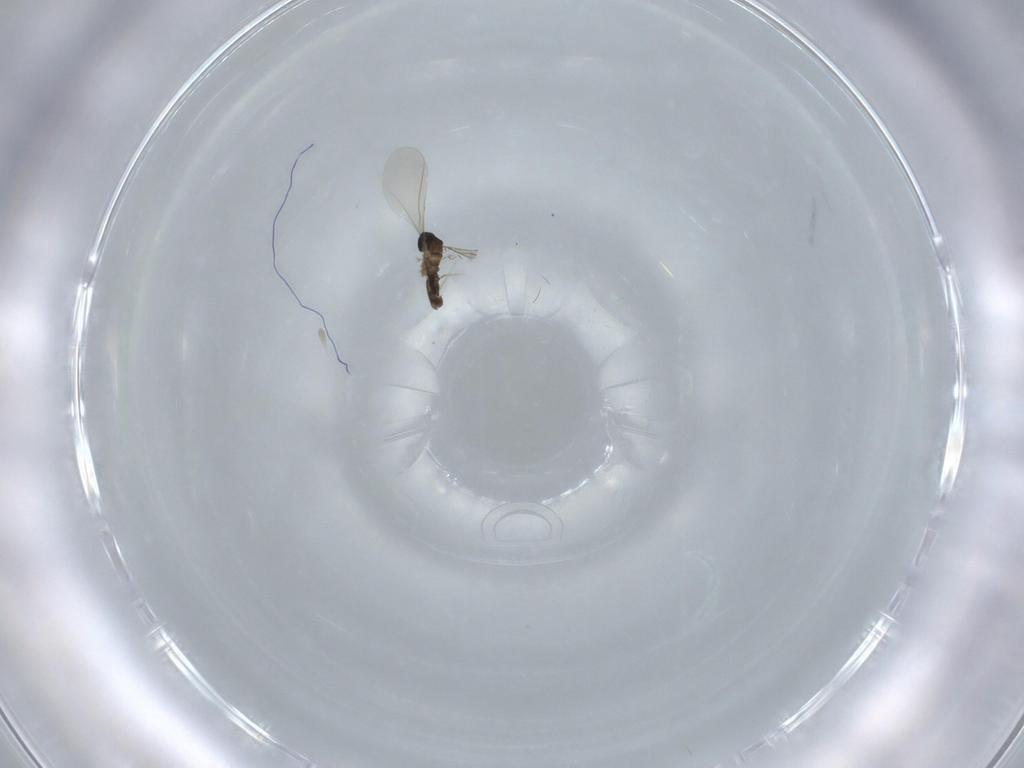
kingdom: Animalia
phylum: Arthropoda
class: Insecta
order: Diptera
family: Cecidomyiidae
